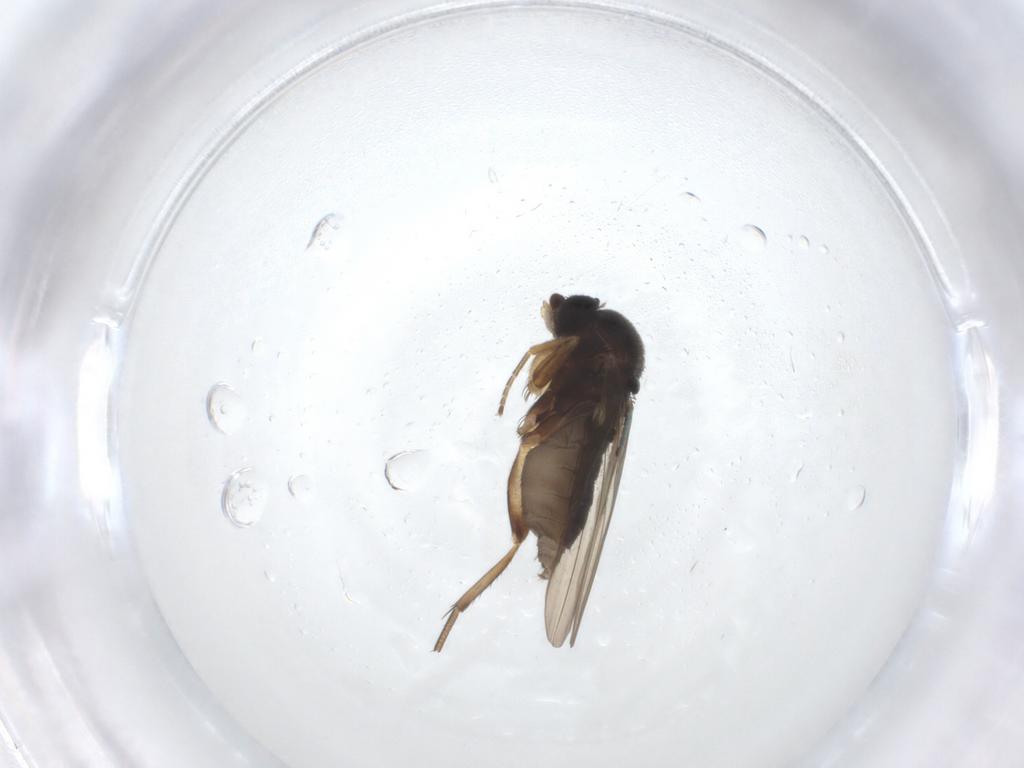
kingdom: Animalia
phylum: Arthropoda
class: Insecta
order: Diptera
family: Phoridae
